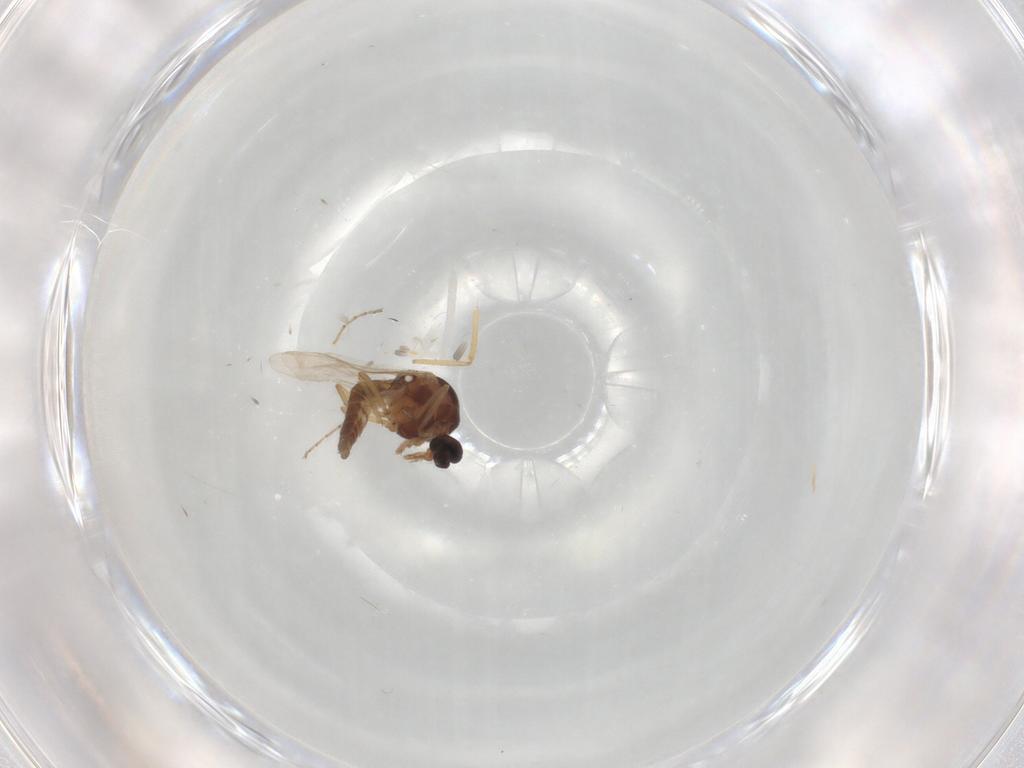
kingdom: Animalia
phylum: Arthropoda
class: Insecta
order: Diptera
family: Ceratopogonidae
